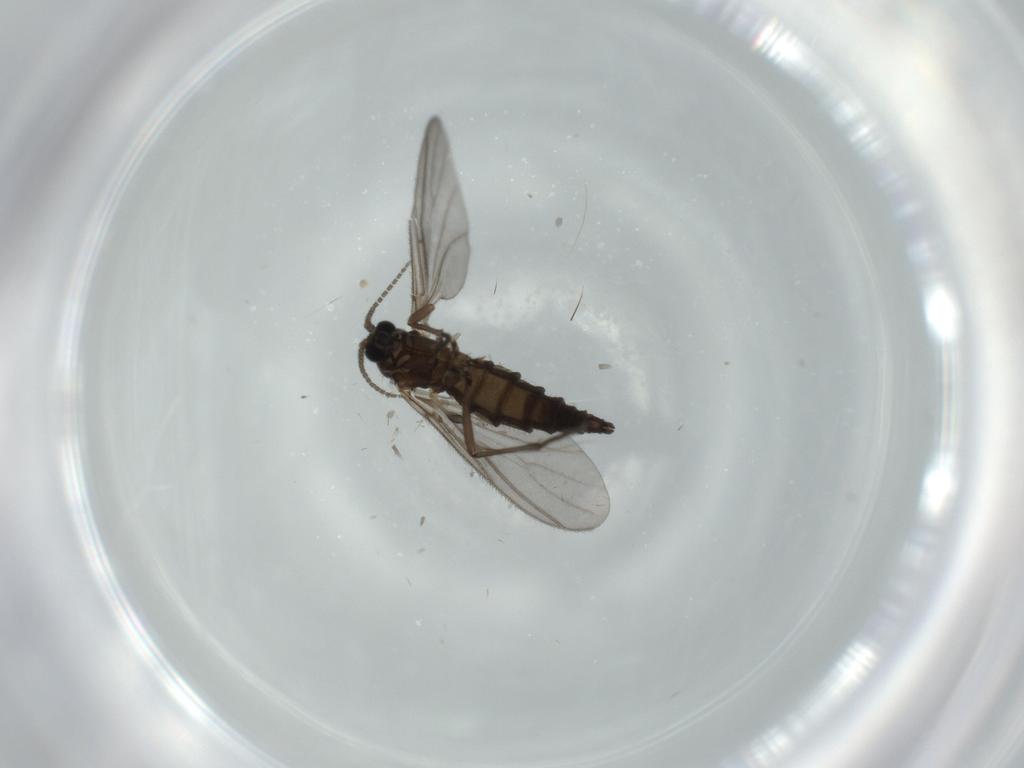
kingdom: Animalia
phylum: Arthropoda
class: Insecta
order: Diptera
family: Sciaridae
